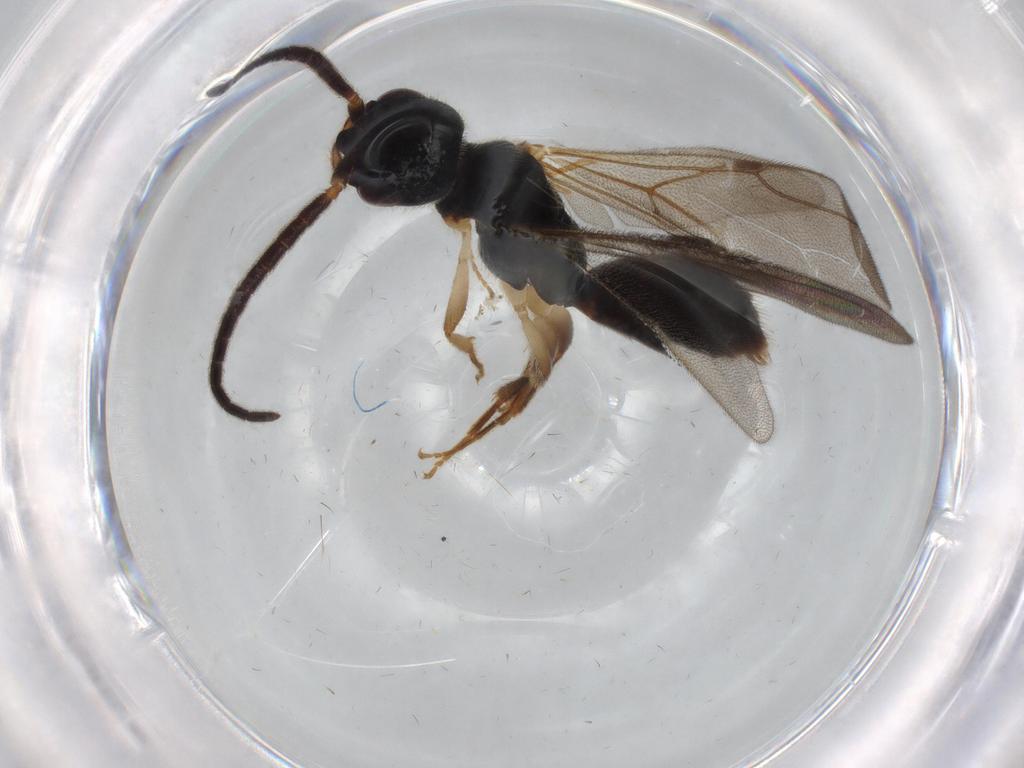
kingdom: Animalia
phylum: Arthropoda
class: Insecta
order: Hymenoptera
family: Bethylidae
